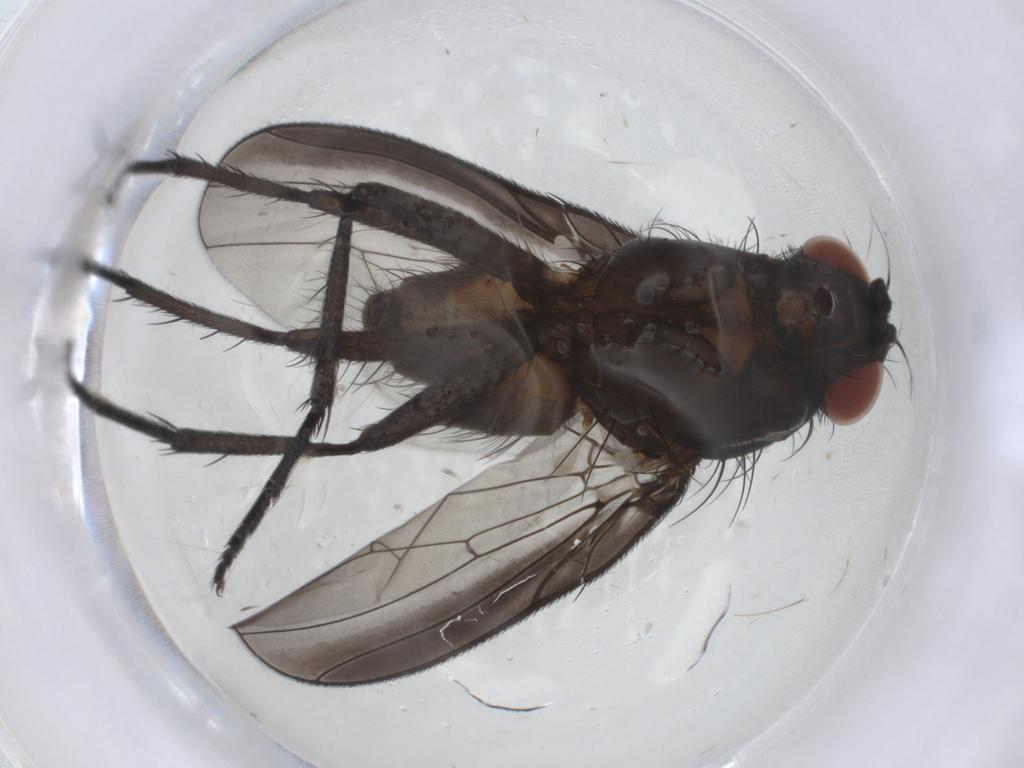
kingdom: Animalia
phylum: Arthropoda
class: Insecta
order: Diptera
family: Anthomyiidae
